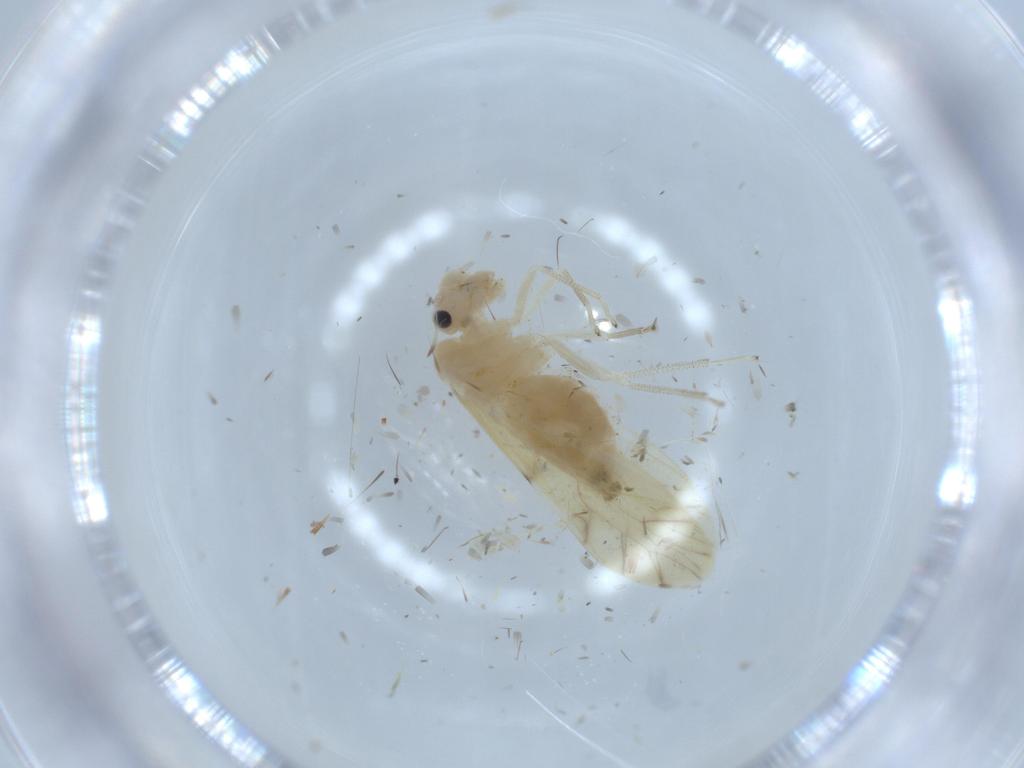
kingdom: Animalia
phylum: Arthropoda
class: Insecta
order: Psocodea
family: Caeciliusidae
